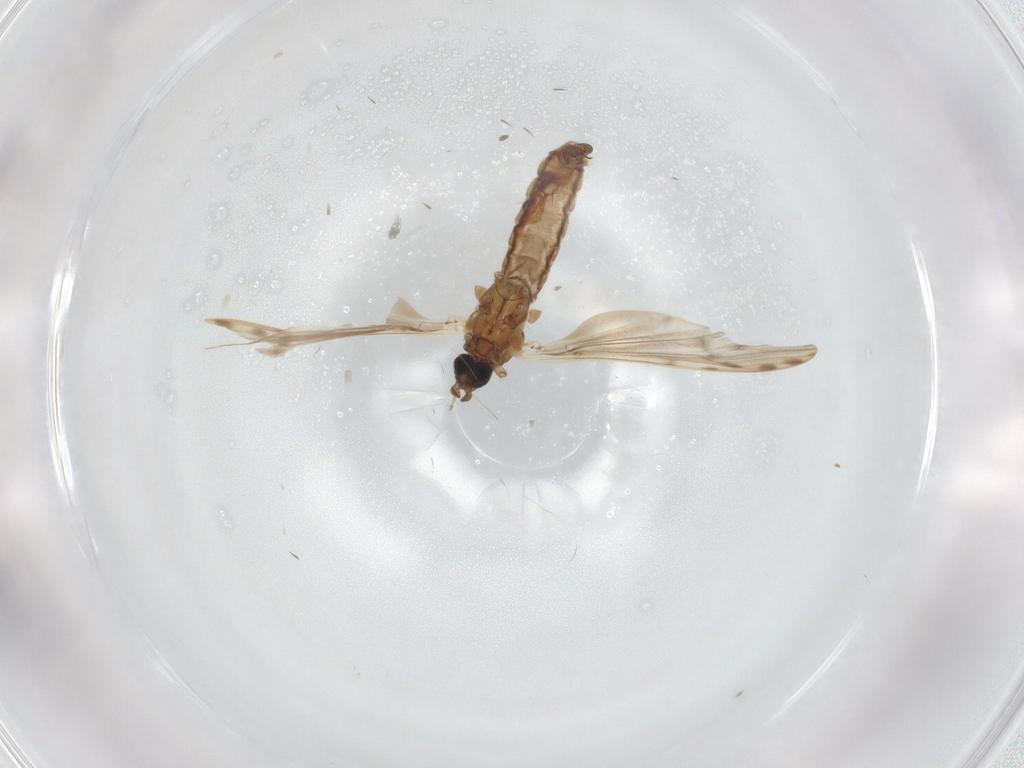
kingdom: Animalia
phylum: Arthropoda
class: Insecta
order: Diptera
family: Limoniidae
